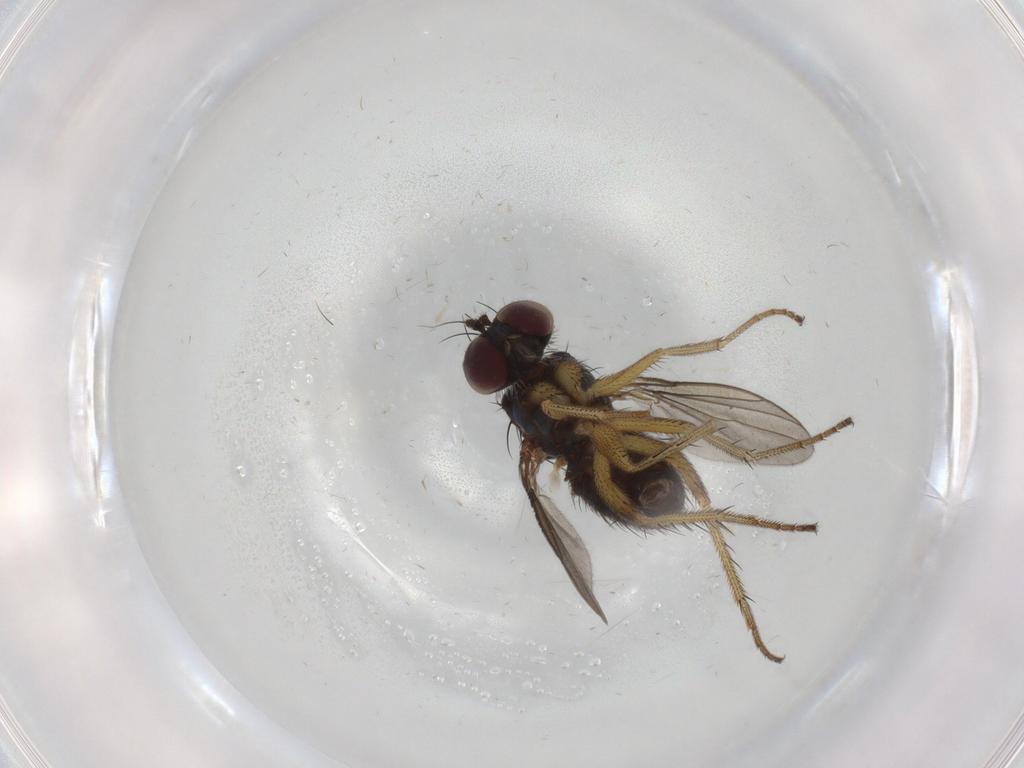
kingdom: Animalia
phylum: Arthropoda
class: Insecta
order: Diptera
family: Dolichopodidae
